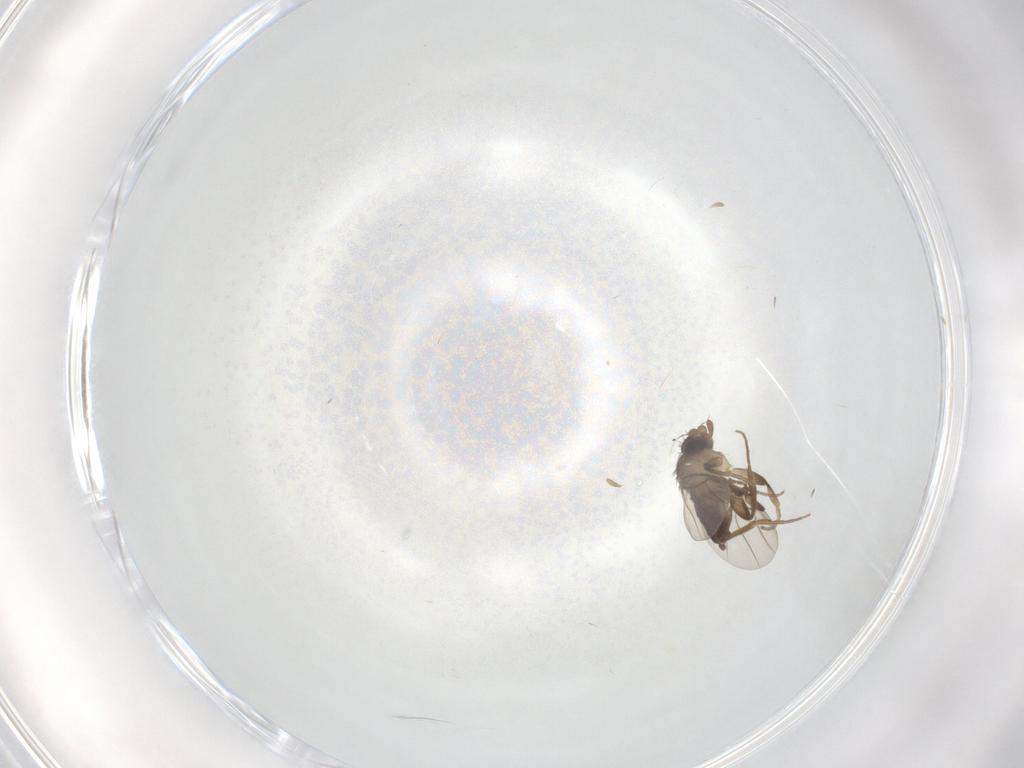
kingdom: Animalia
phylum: Arthropoda
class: Insecta
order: Diptera
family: Phoridae
